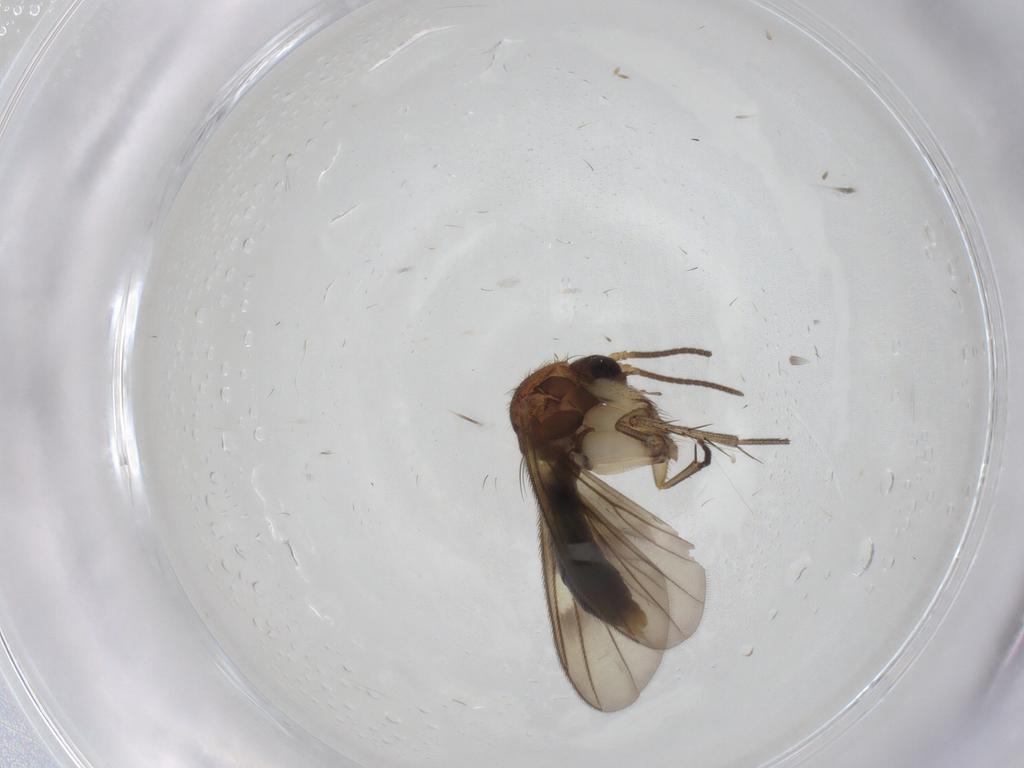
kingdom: Animalia
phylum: Arthropoda
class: Insecta
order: Diptera
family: Mycetophilidae
